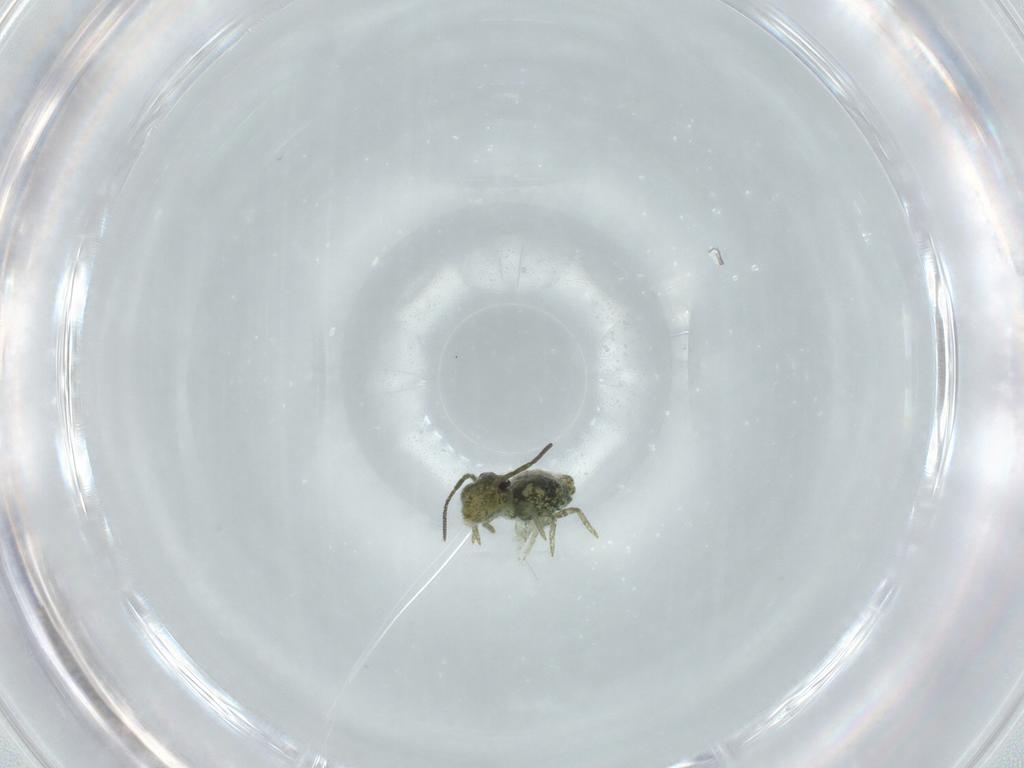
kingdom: Animalia
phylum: Arthropoda
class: Collembola
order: Symphypleona
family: Sminthuridae
